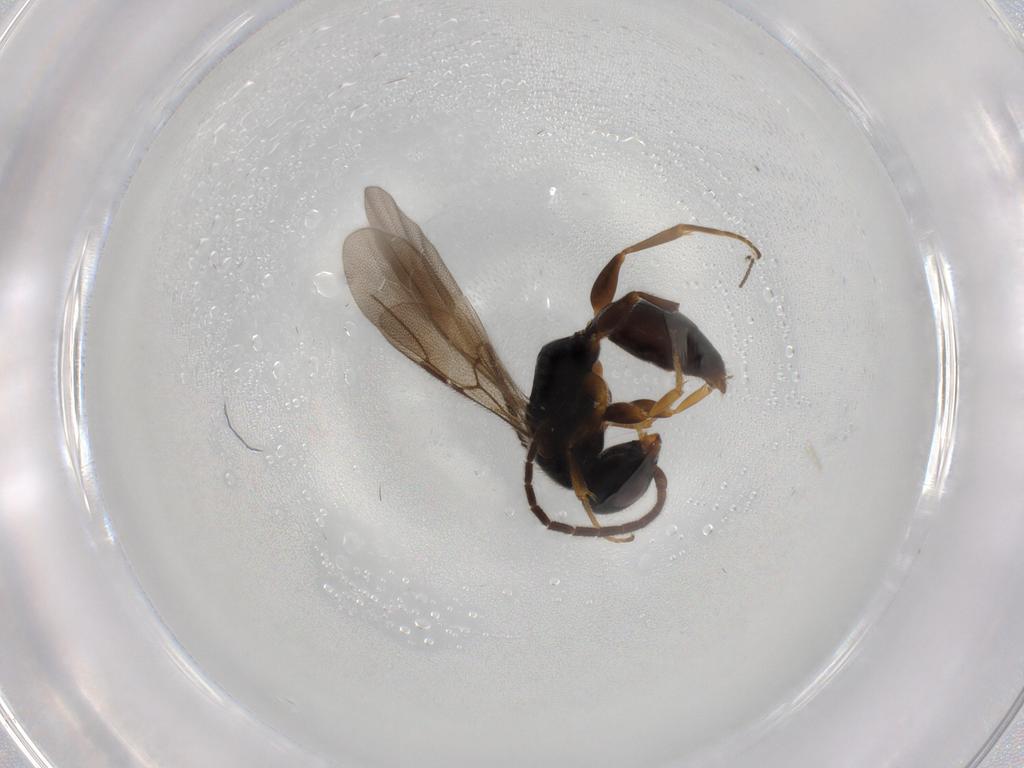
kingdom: Animalia
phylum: Arthropoda
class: Insecta
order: Hymenoptera
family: Bethylidae
